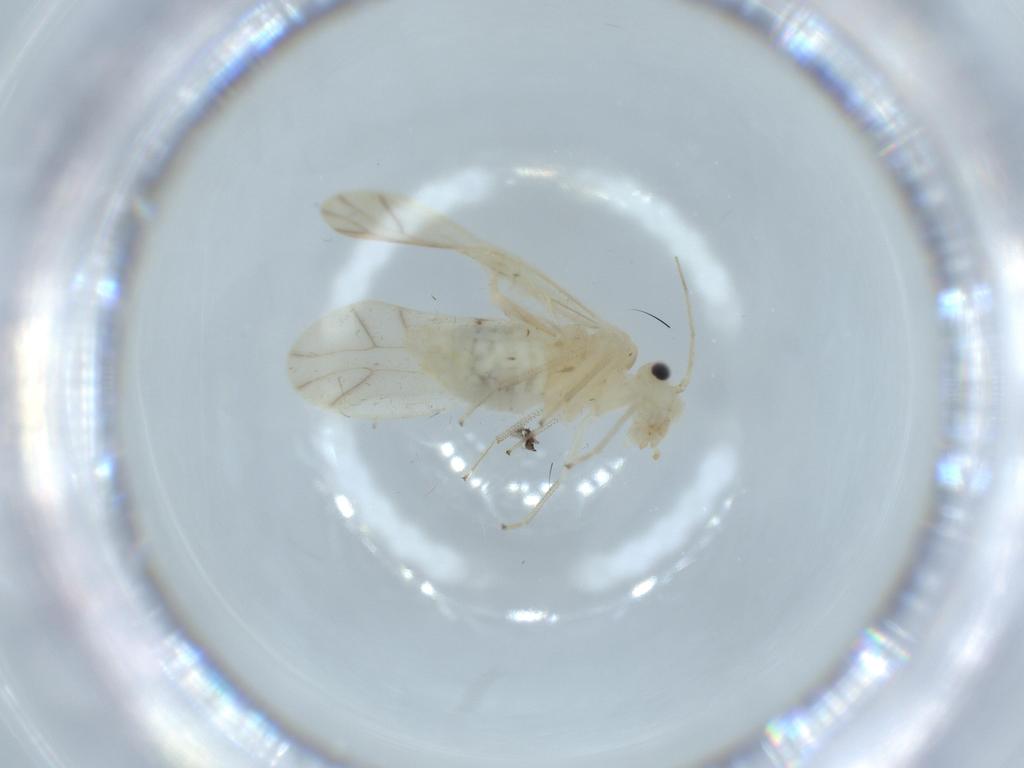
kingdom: Animalia
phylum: Arthropoda
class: Insecta
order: Psocodea
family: Caeciliusidae
